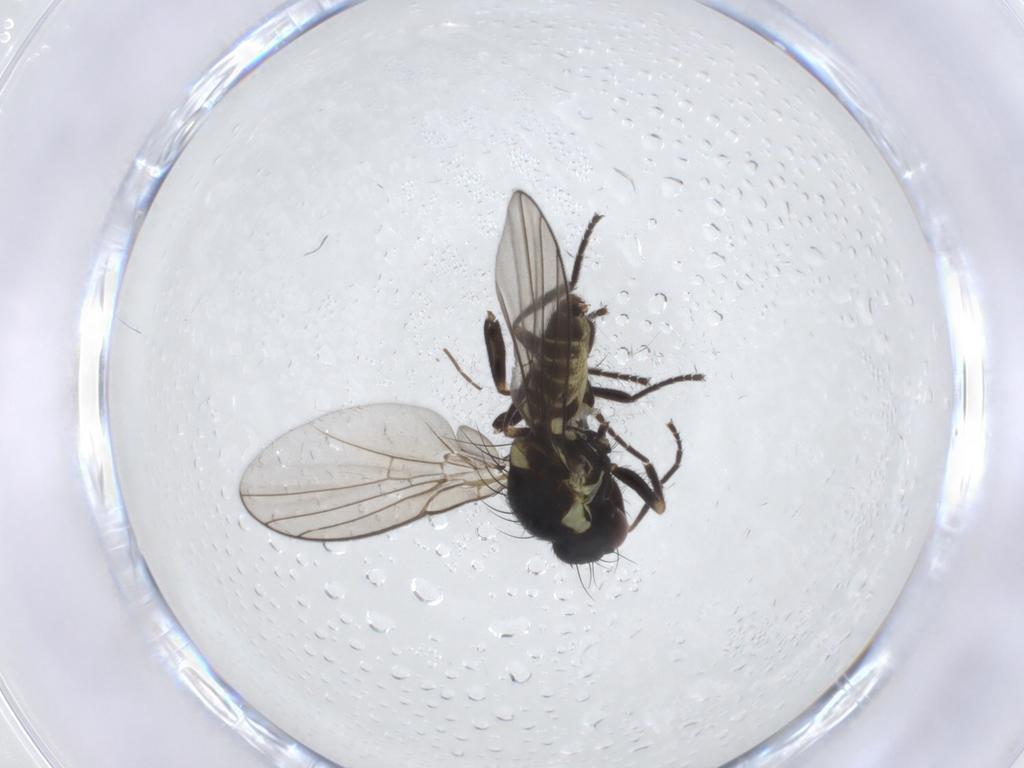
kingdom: Animalia
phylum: Arthropoda
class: Insecta
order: Diptera
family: Agromyzidae
